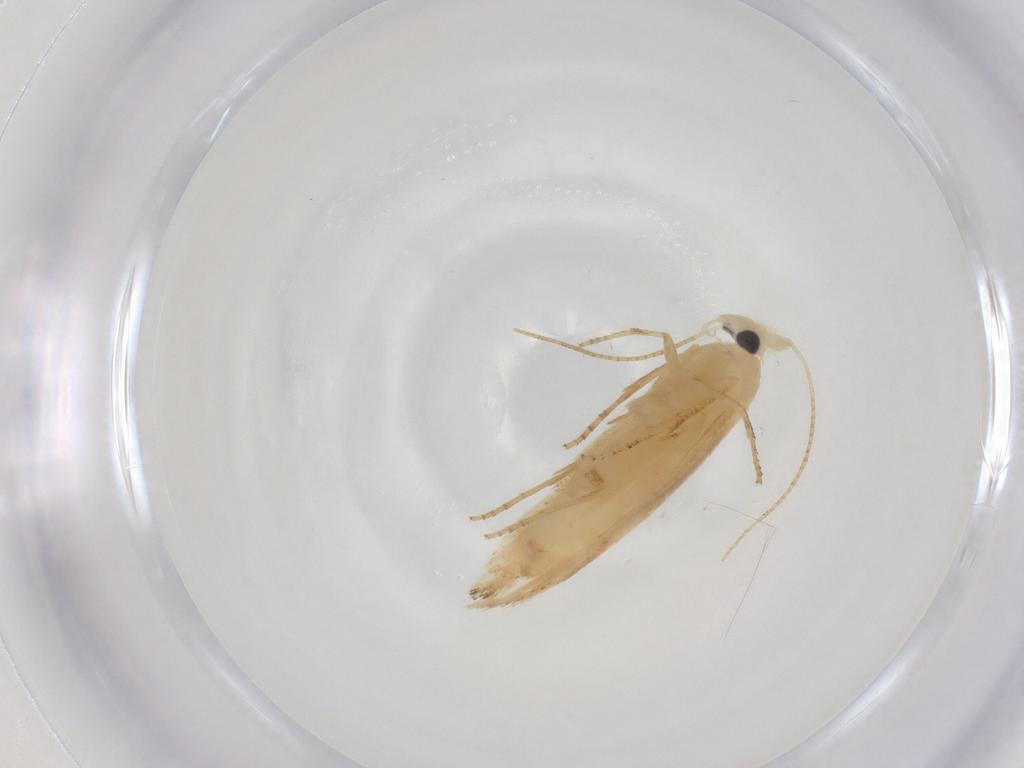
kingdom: Animalia
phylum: Arthropoda
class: Insecta
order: Lepidoptera
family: Bucculatricidae
